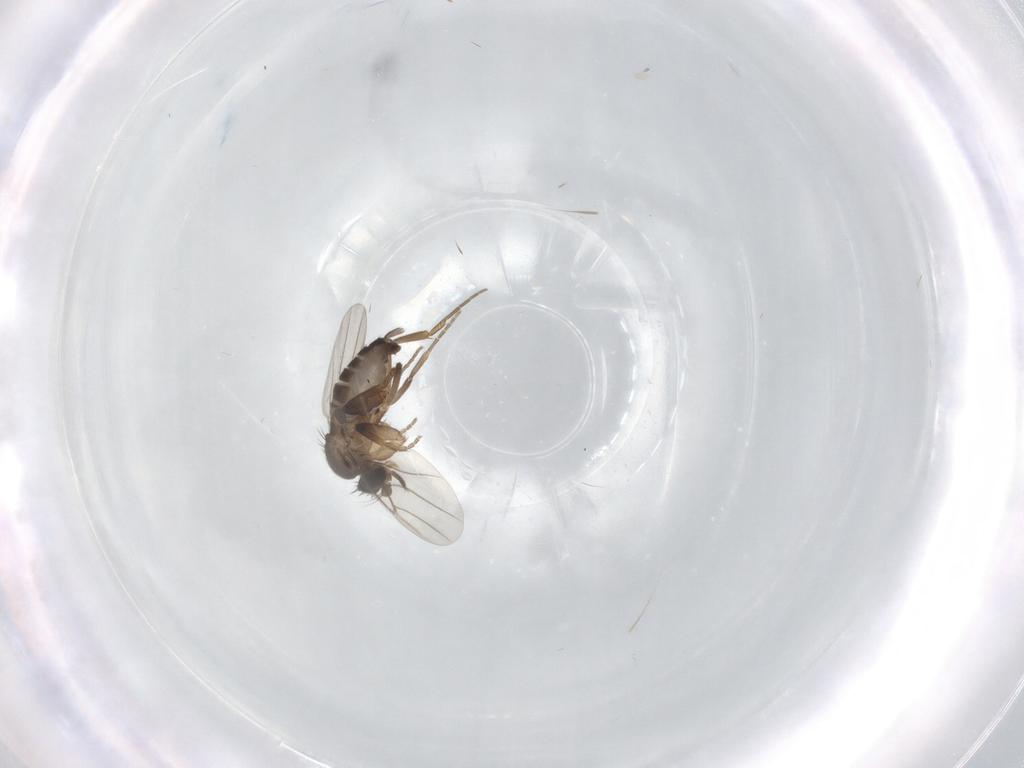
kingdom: Animalia
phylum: Arthropoda
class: Insecta
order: Diptera
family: Phoridae
